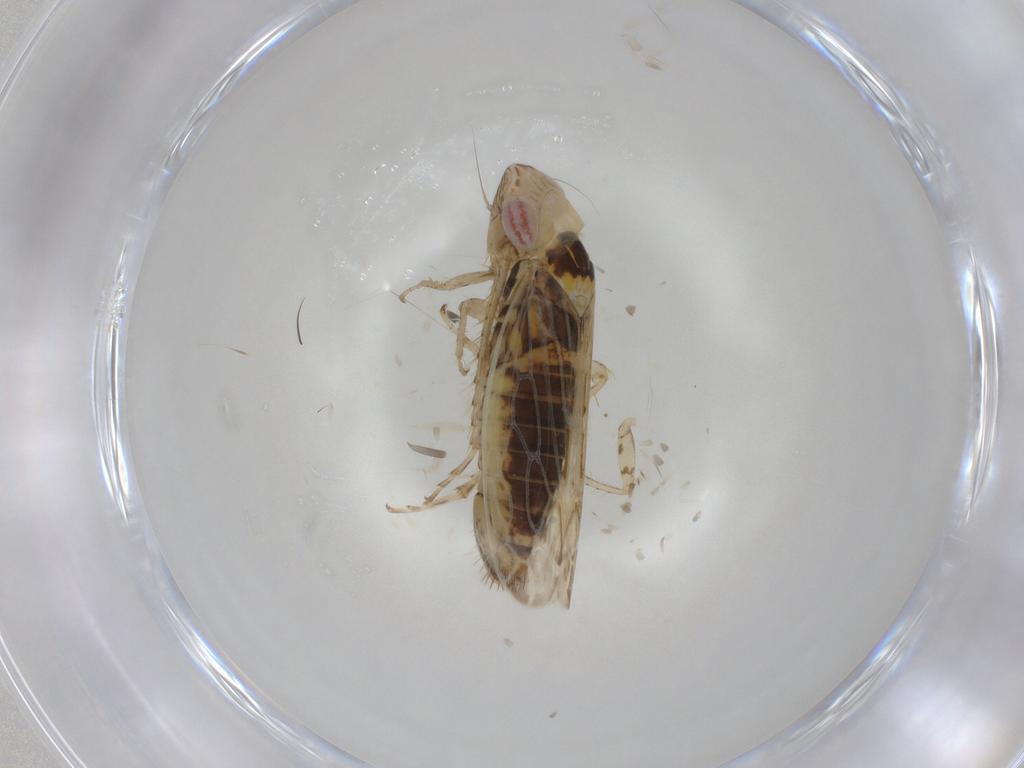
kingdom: Animalia
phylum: Arthropoda
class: Insecta
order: Hemiptera
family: Cicadellidae
